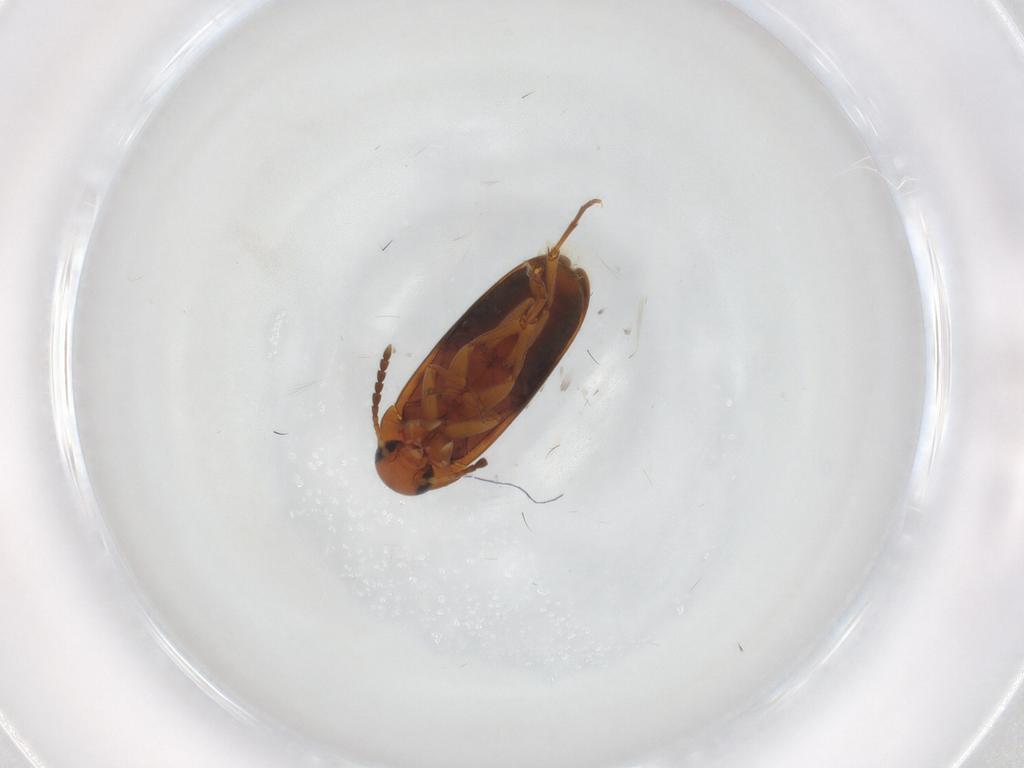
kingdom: Animalia
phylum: Arthropoda
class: Insecta
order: Coleoptera
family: Scraptiidae
